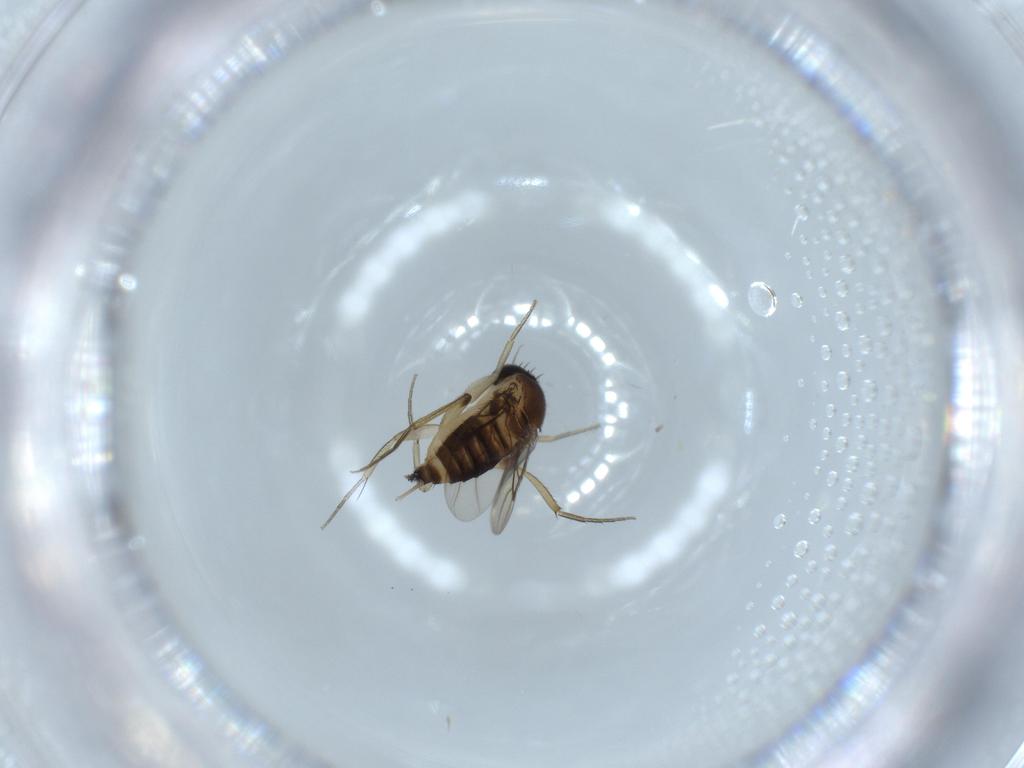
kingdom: Animalia
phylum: Arthropoda
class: Insecta
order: Diptera
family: Phoridae
